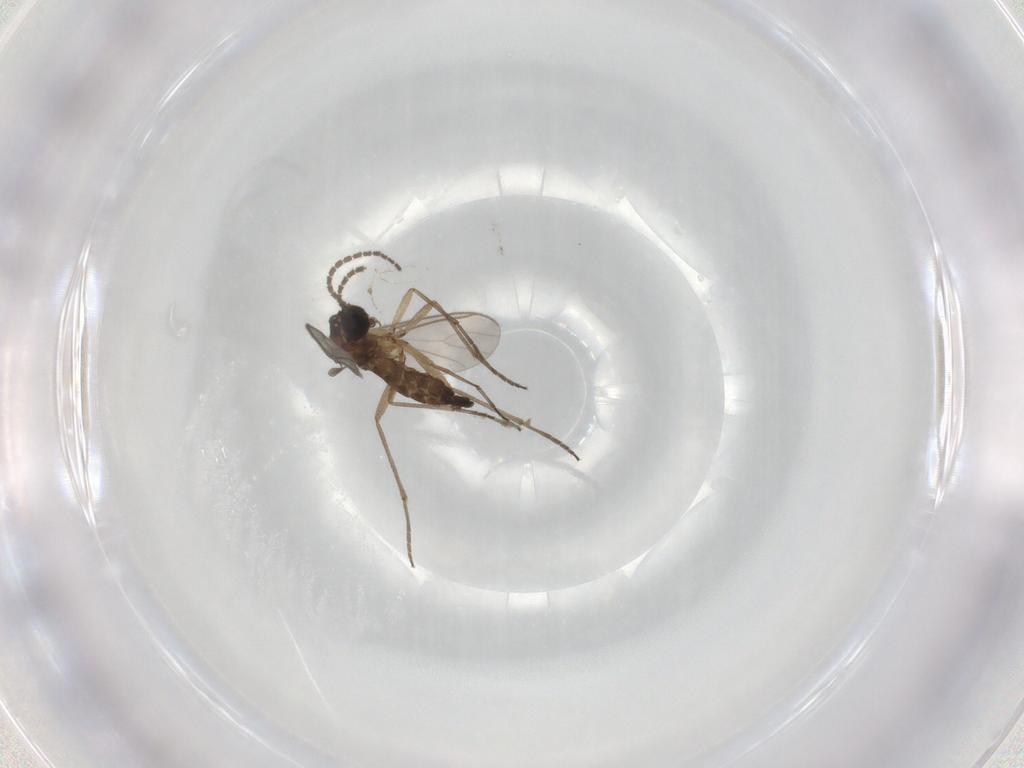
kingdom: Animalia
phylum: Arthropoda
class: Insecta
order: Diptera
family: Sciaridae
